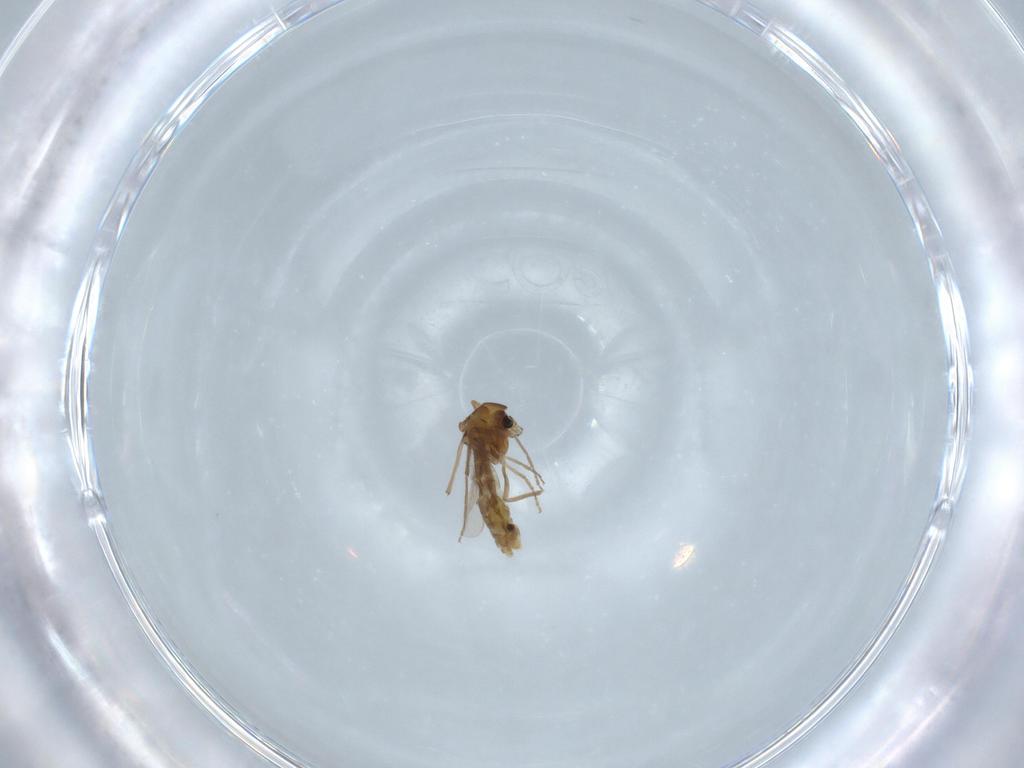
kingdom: Animalia
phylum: Arthropoda
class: Insecta
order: Diptera
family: Chironomidae
